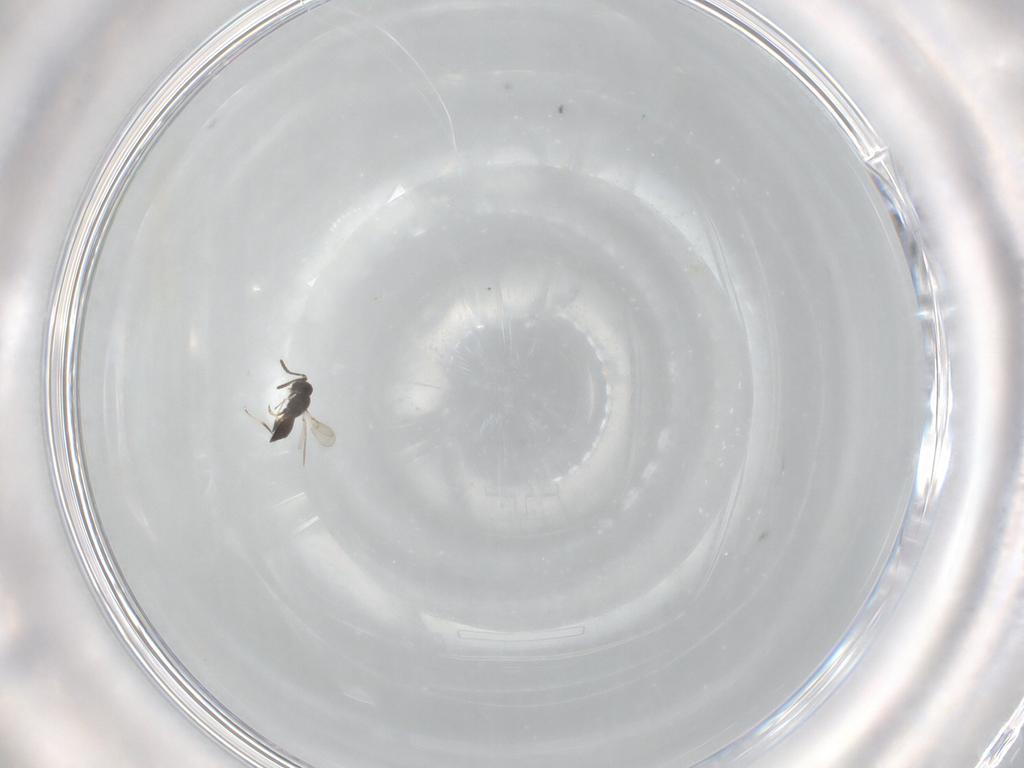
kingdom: Animalia
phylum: Arthropoda
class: Insecta
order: Hymenoptera
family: Scelionidae
